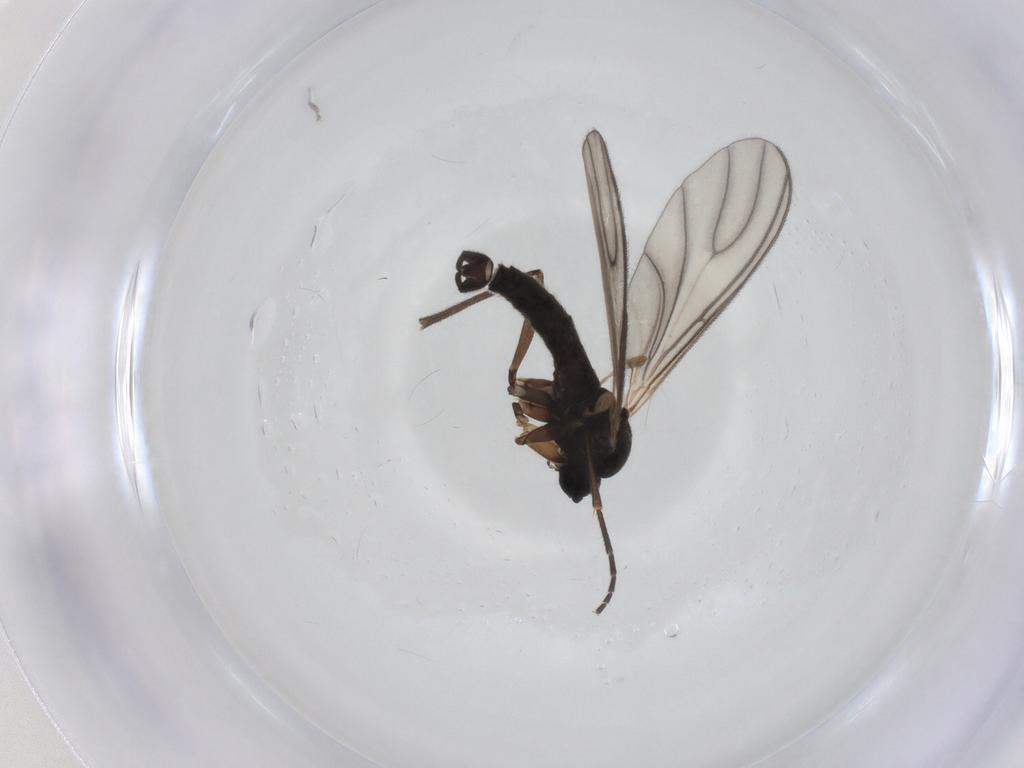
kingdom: Animalia
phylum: Arthropoda
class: Insecta
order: Diptera
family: Sciaridae
